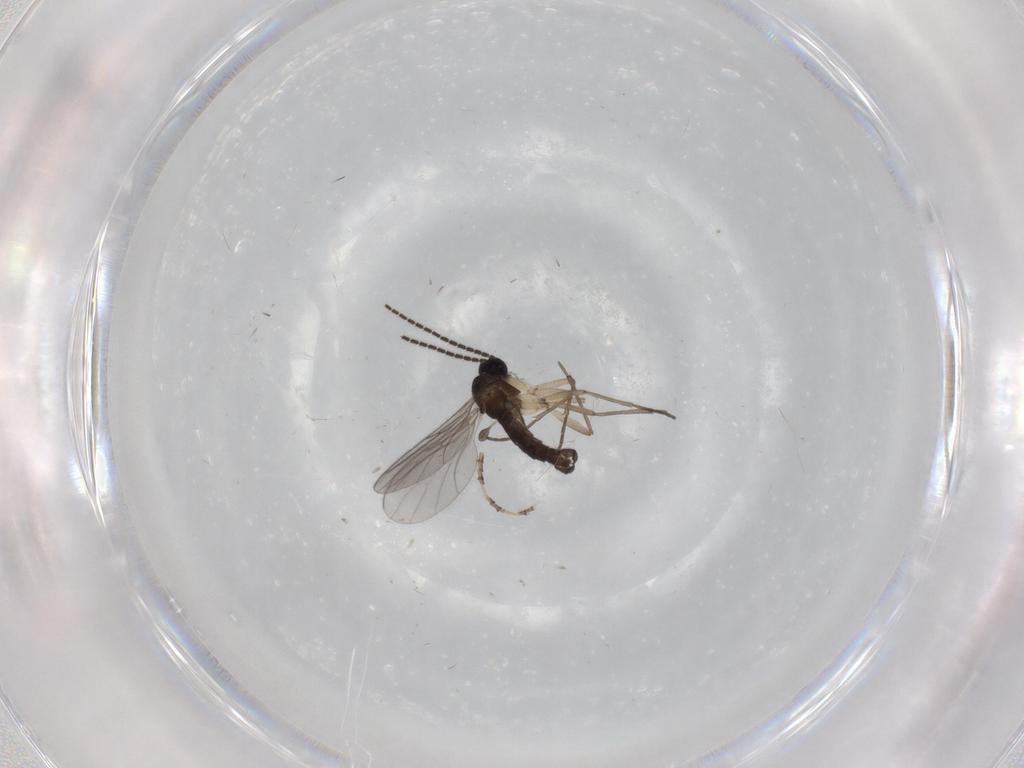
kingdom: Animalia
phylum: Arthropoda
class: Insecta
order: Diptera
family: Sciaridae
